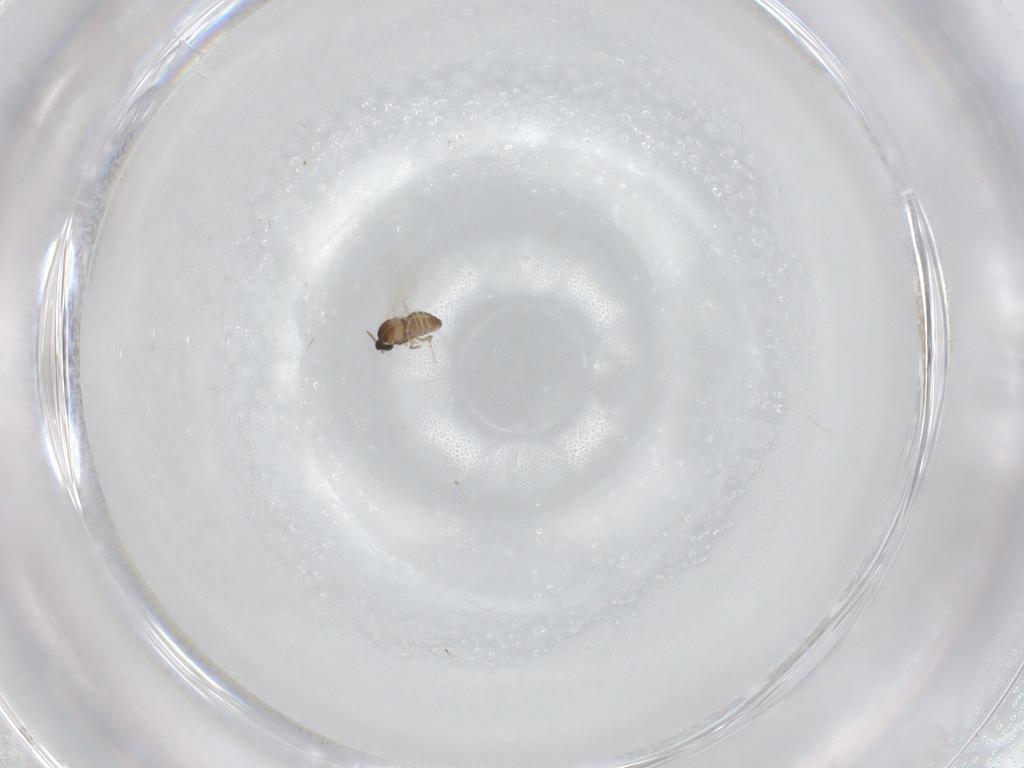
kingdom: Animalia
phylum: Arthropoda
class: Insecta
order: Diptera
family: Cecidomyiidae
